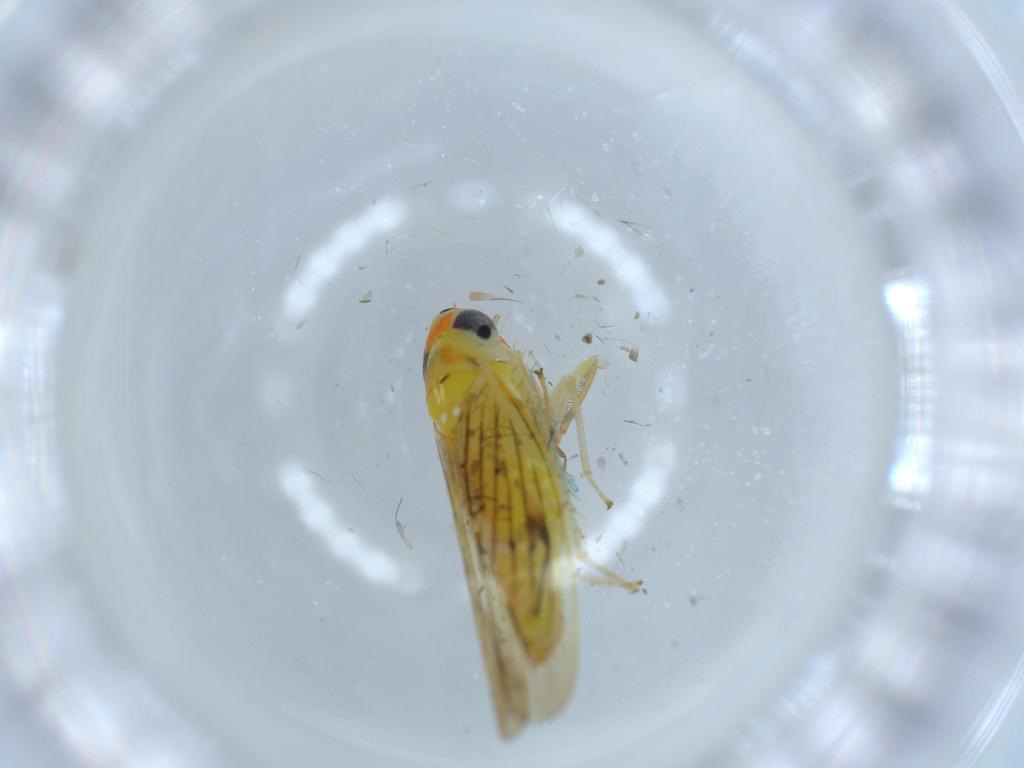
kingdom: Animalia
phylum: Arthropoda
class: Insecta
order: Hemiptera
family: Cicadellidae
